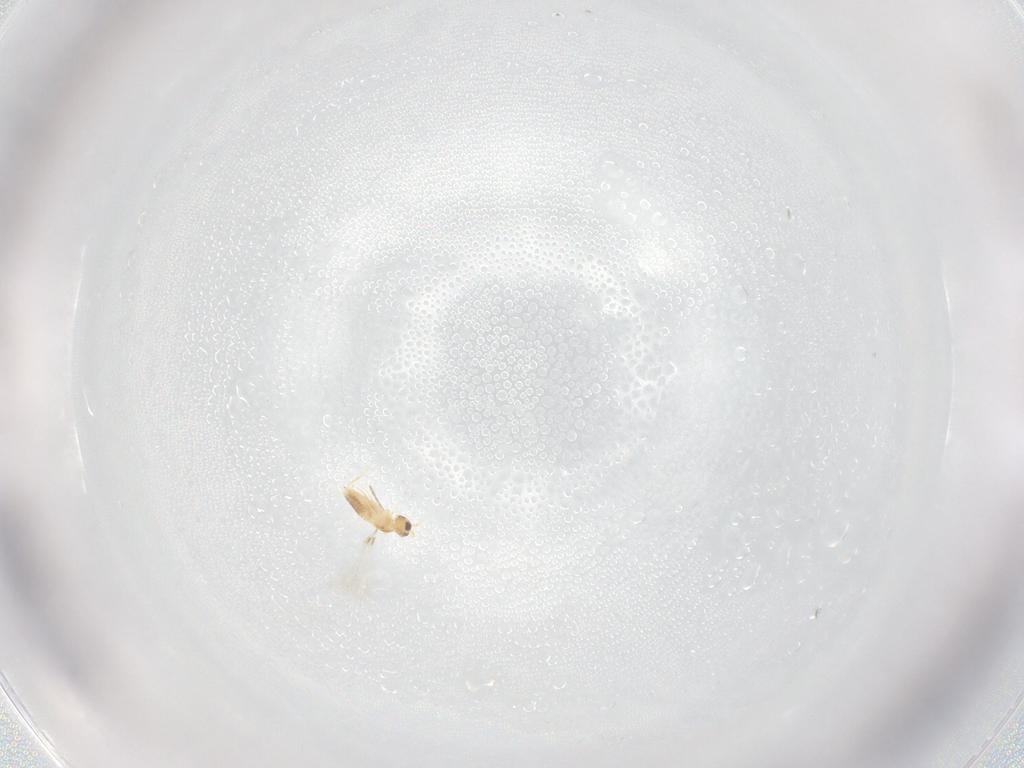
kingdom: Animalia
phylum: Arthropoda
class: Insecta
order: Hymenoptera
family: Mymaridae
